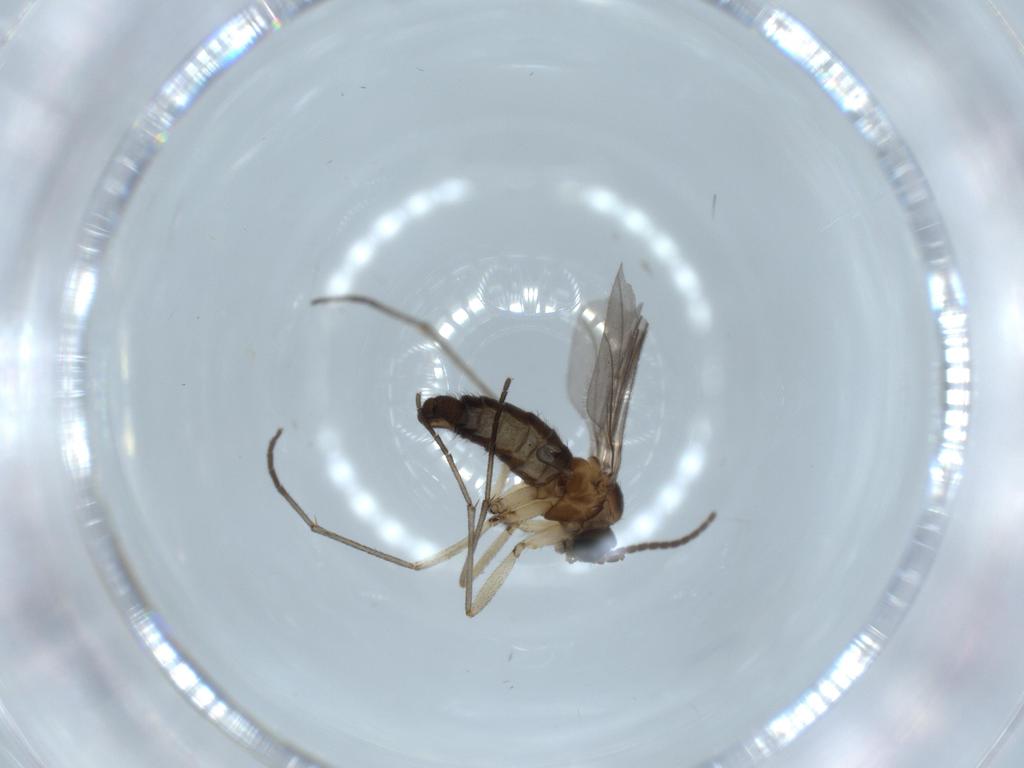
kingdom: Animalia
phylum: Arthropoda
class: Insecta
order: Diptera
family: Sciaridae
